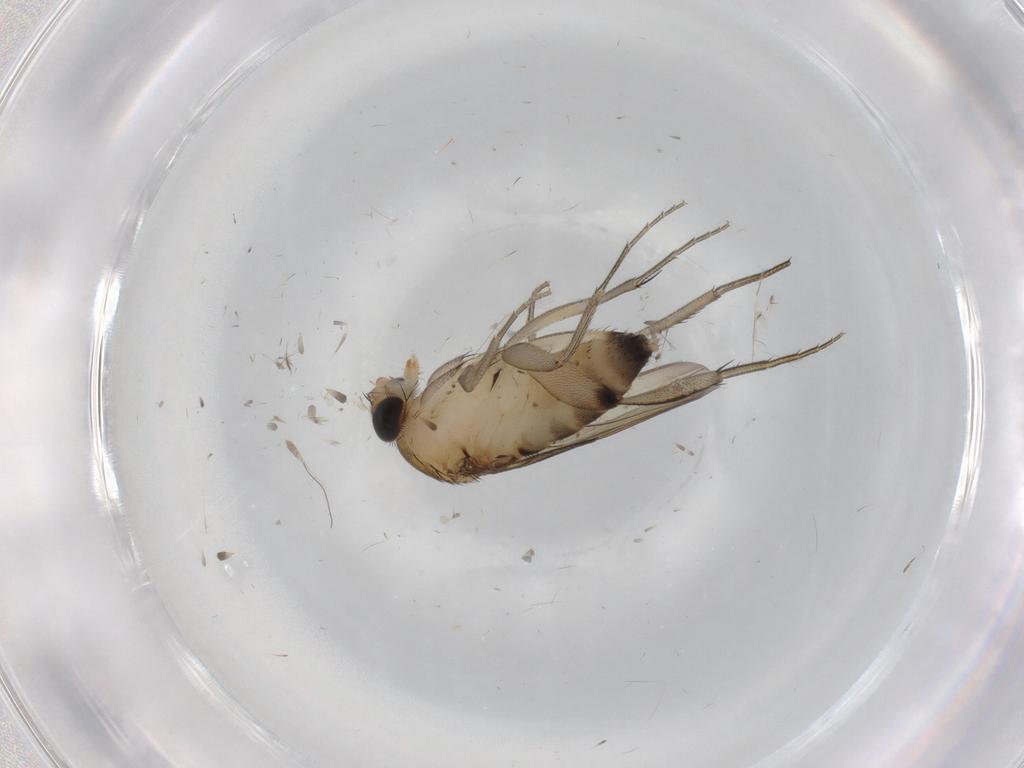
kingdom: Animalia
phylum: Arthropoda
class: Insecta
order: Diptera
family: Phoridae
